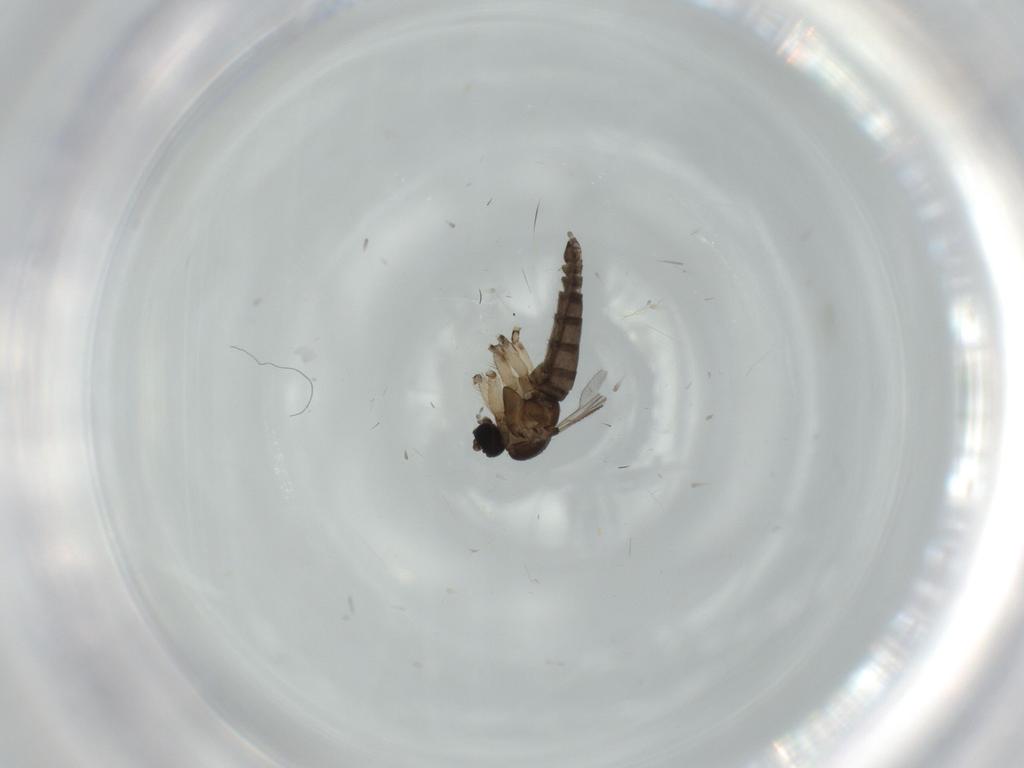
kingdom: Animalia
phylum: Arthropoda
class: Insecta
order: Diptera
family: Sciaridae
